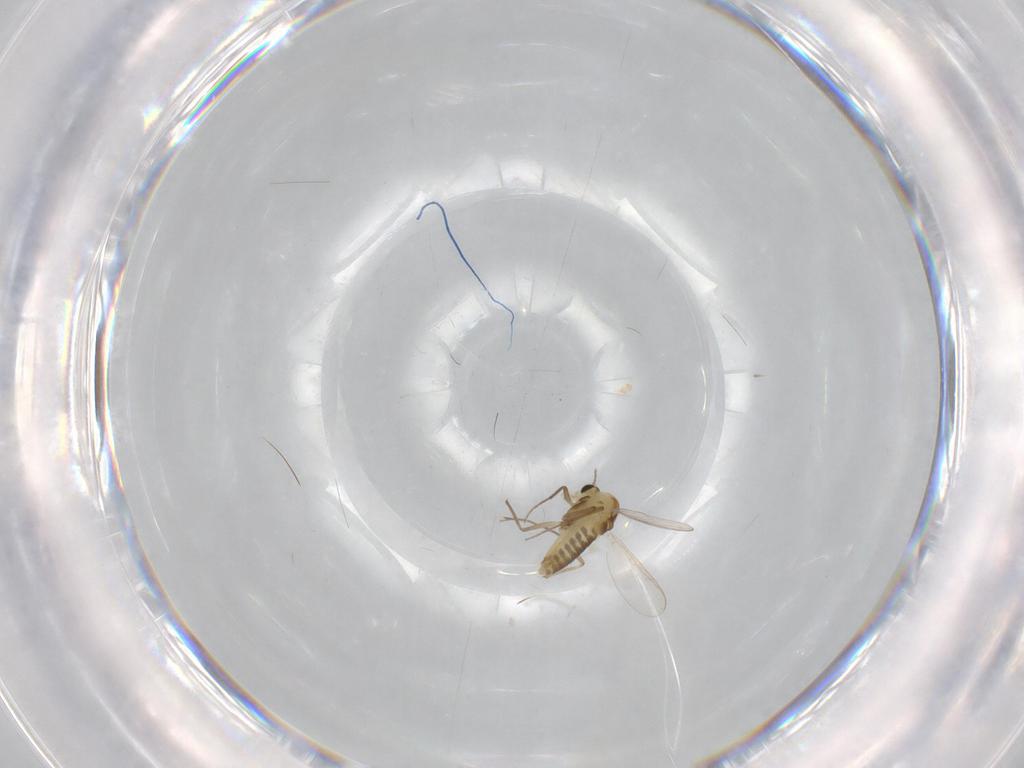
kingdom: Animalia
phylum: Arthropoda
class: Insecta
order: Diptera
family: Chironomidae
